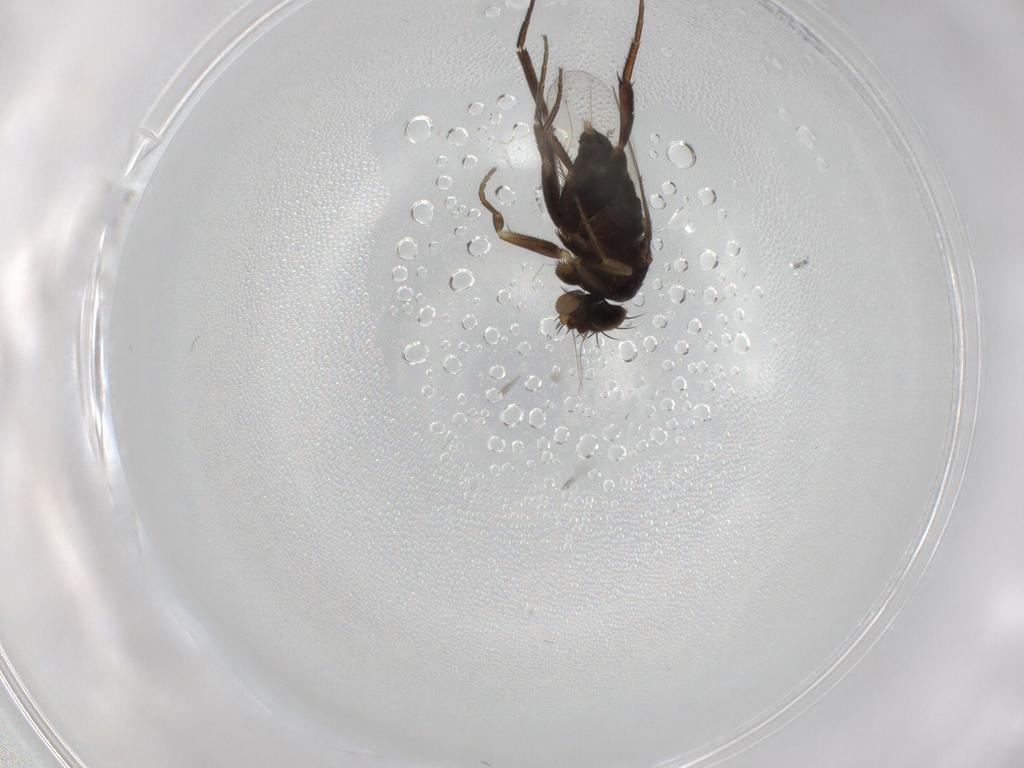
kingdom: Animalia
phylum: Arthropoda
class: Insecta
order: Diptera
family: Phoridae
